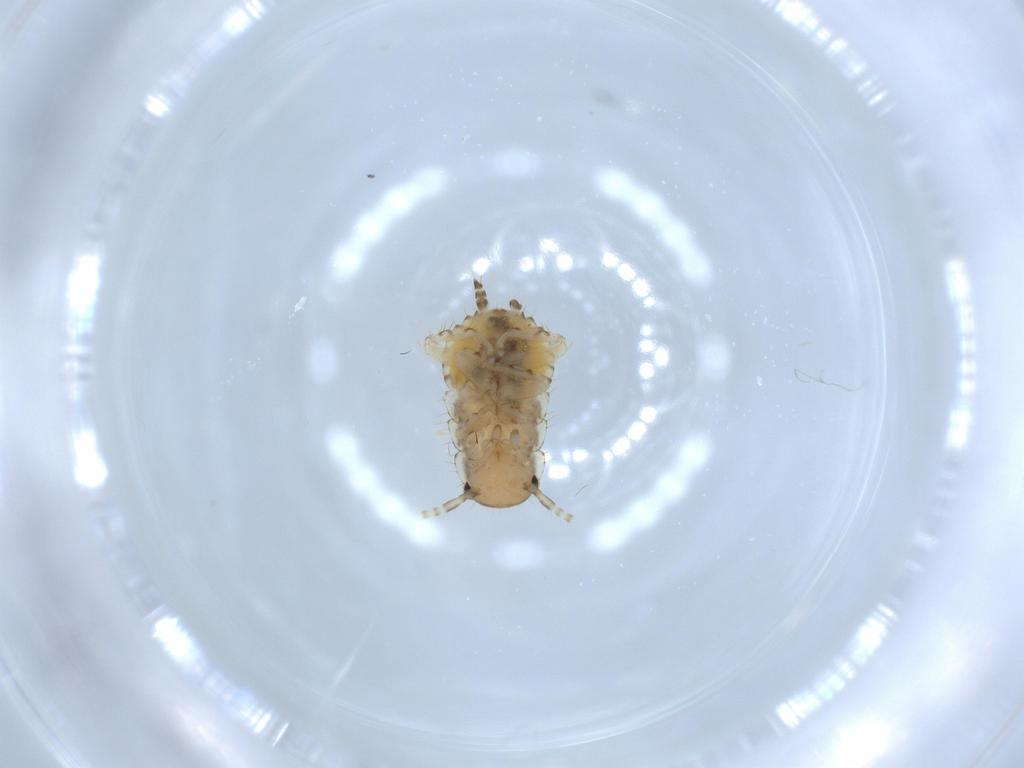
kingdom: Animalia
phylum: Arthropoda
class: Insecta
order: Blattodea
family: Ectobiidae
